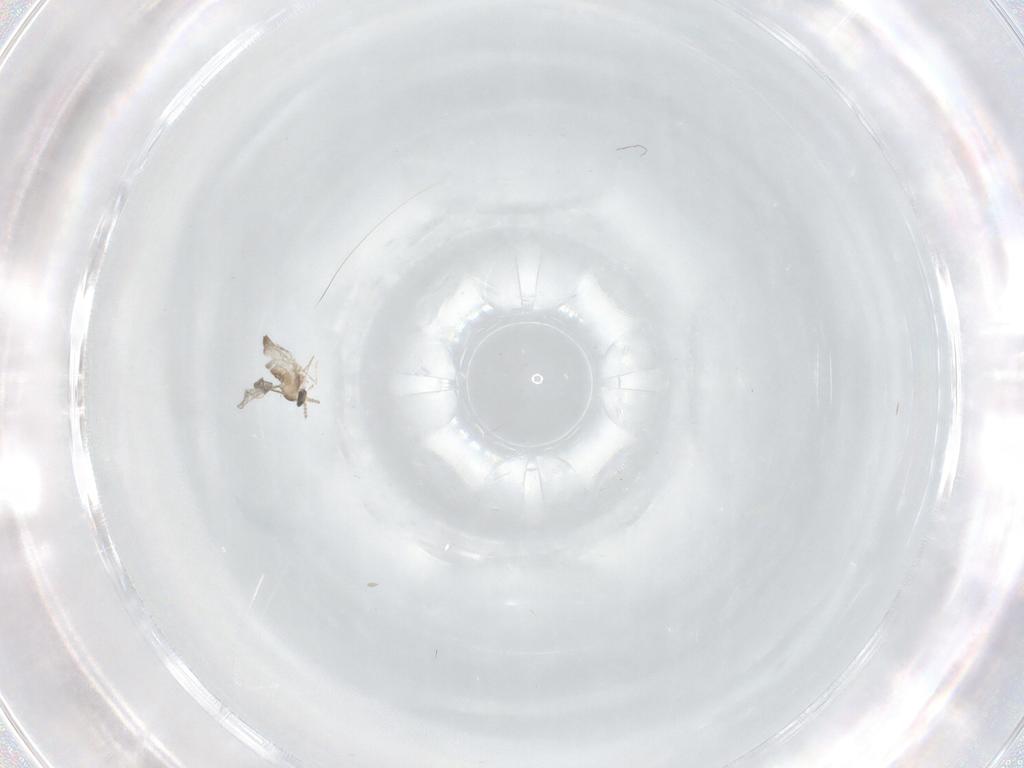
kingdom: Animalia
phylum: Arthropoda
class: Insecta
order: Diptera
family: Cecidomyiidae
